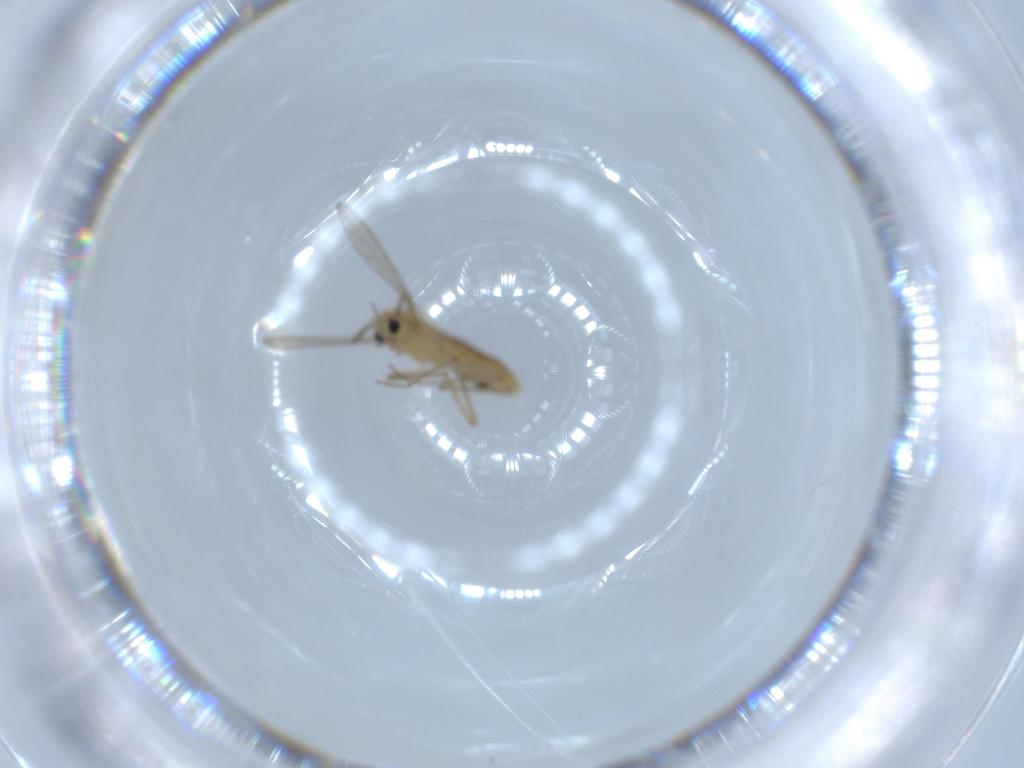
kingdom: Animalia
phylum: Arthropoda
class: Insecta
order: Diptera
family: Chironomidae
